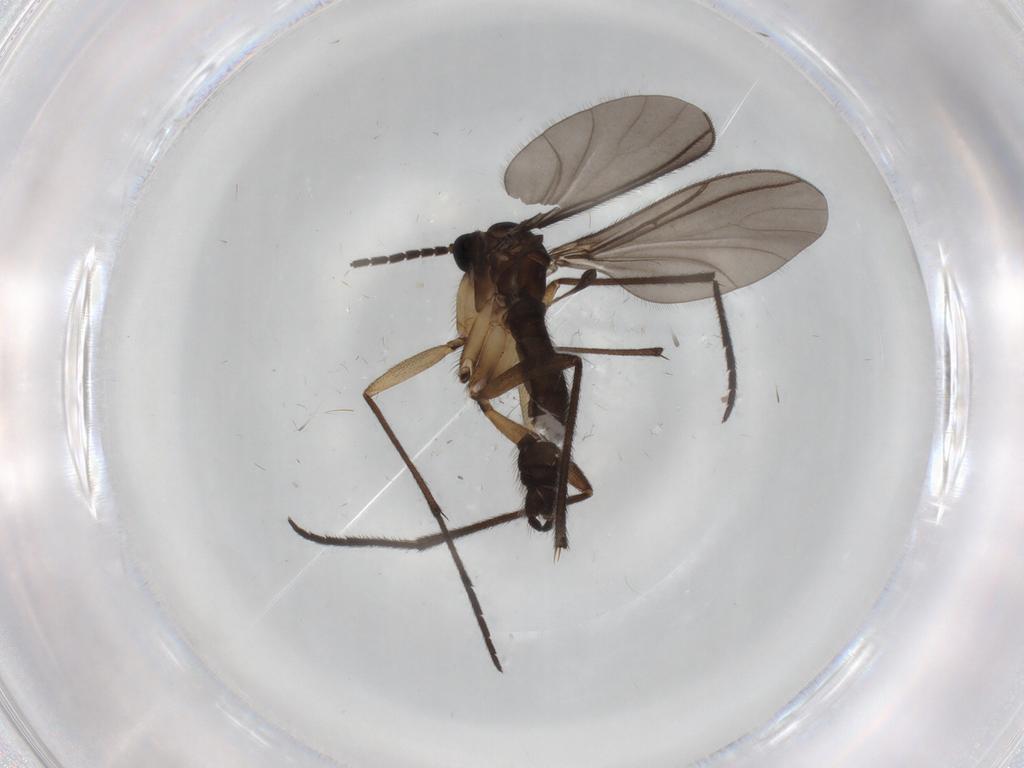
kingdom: Animalia
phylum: Arthropoda
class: Insecta
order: Diptera
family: Sciaridae
